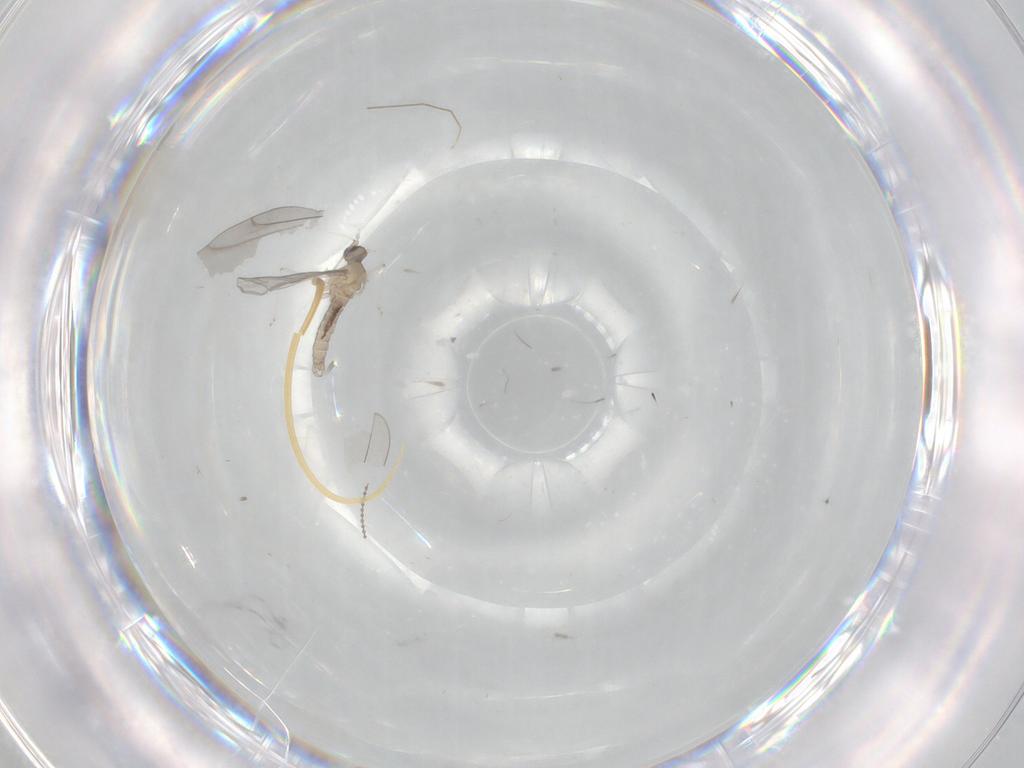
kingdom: Animalia
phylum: Arthropoda
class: Insecta
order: Diptera
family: Cecidomyiidae
